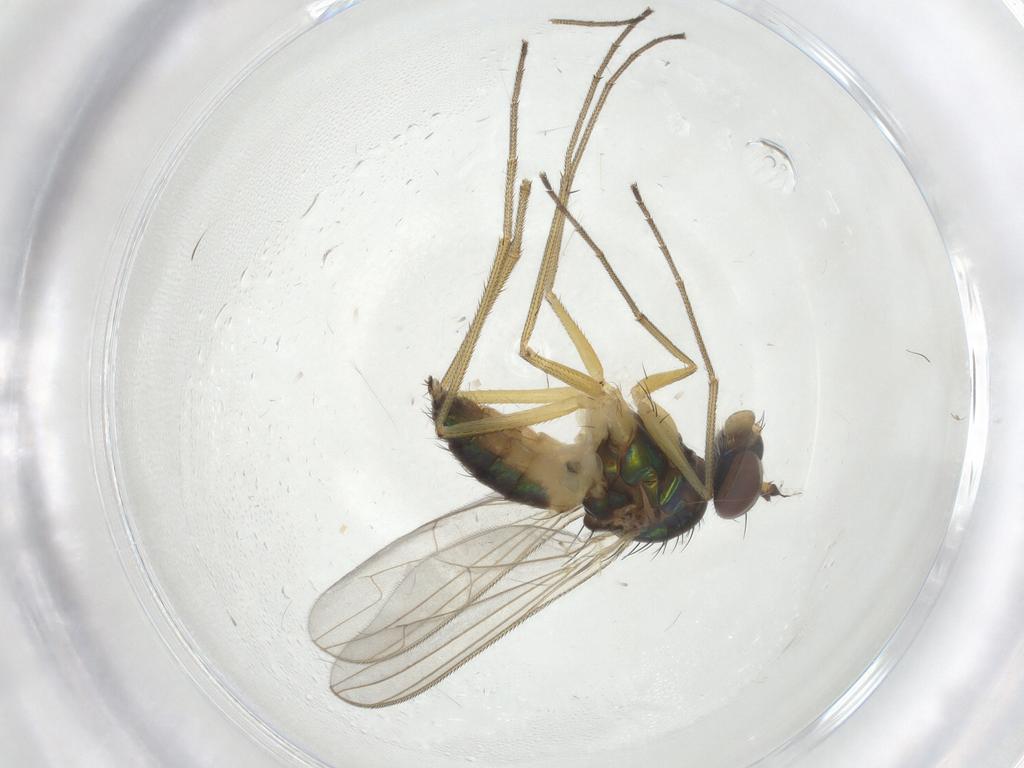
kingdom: Animalia
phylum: Arthropoda
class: Insecta
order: Diptera
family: Dolichopodidae
